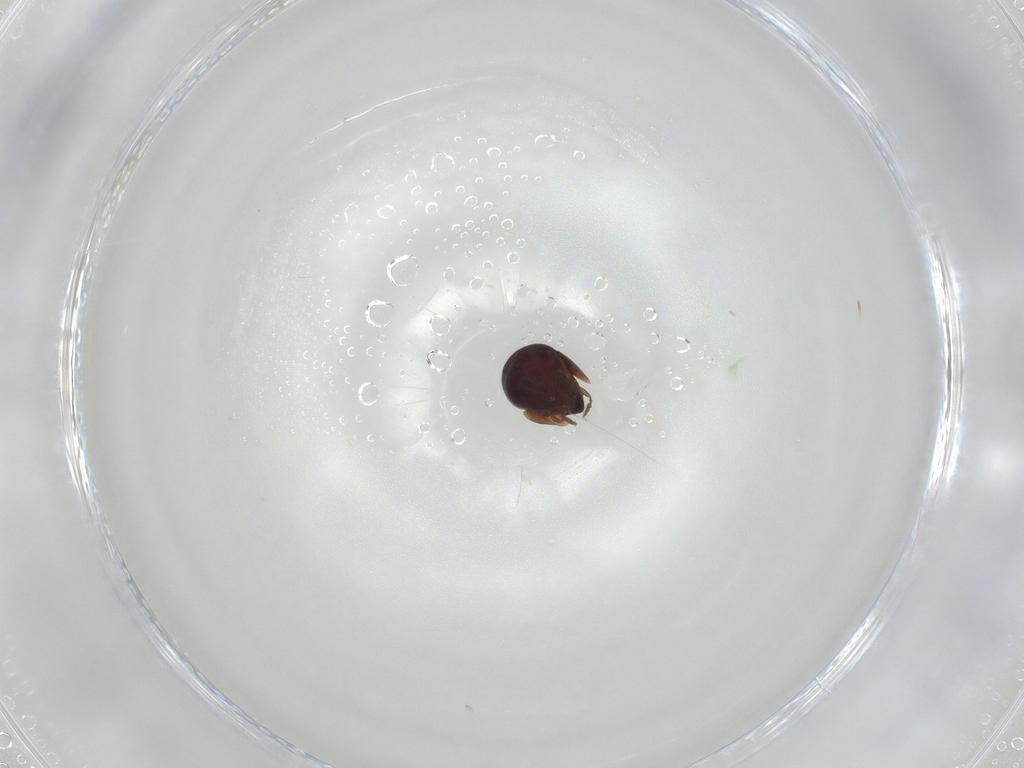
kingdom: Animalia
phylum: Arthropoda
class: Arachnida
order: Sarcoptiformes
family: Galumnidae
